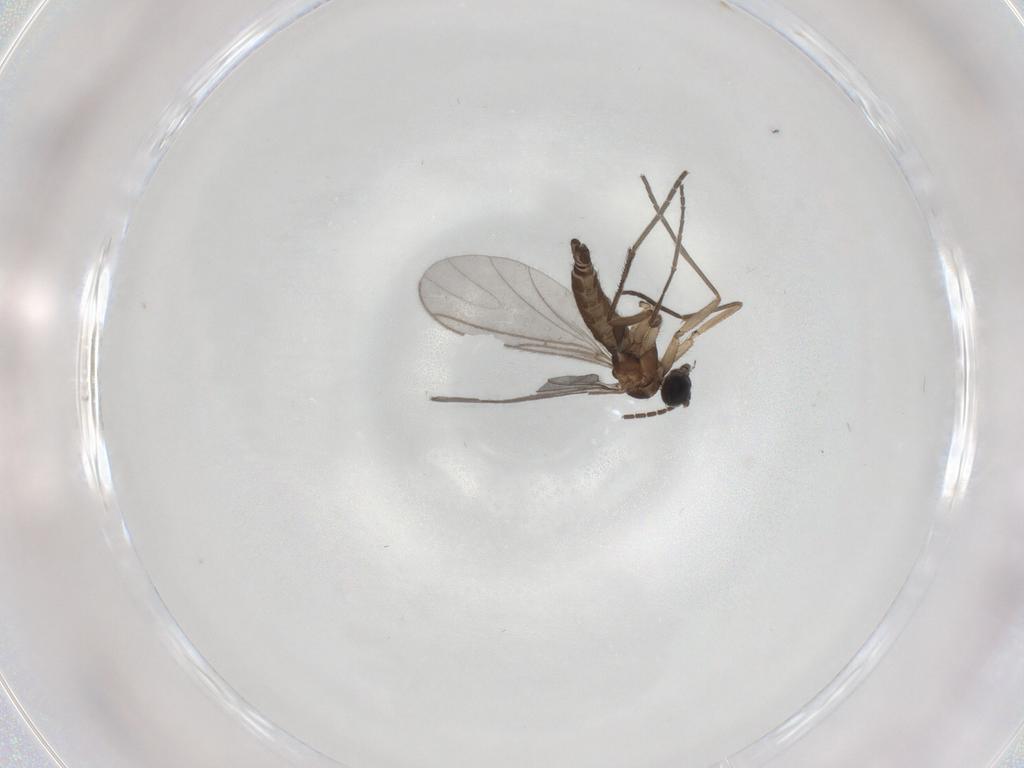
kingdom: Animalia
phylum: Arthropoda
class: Insecta
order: Diptera
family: Sciaridae
